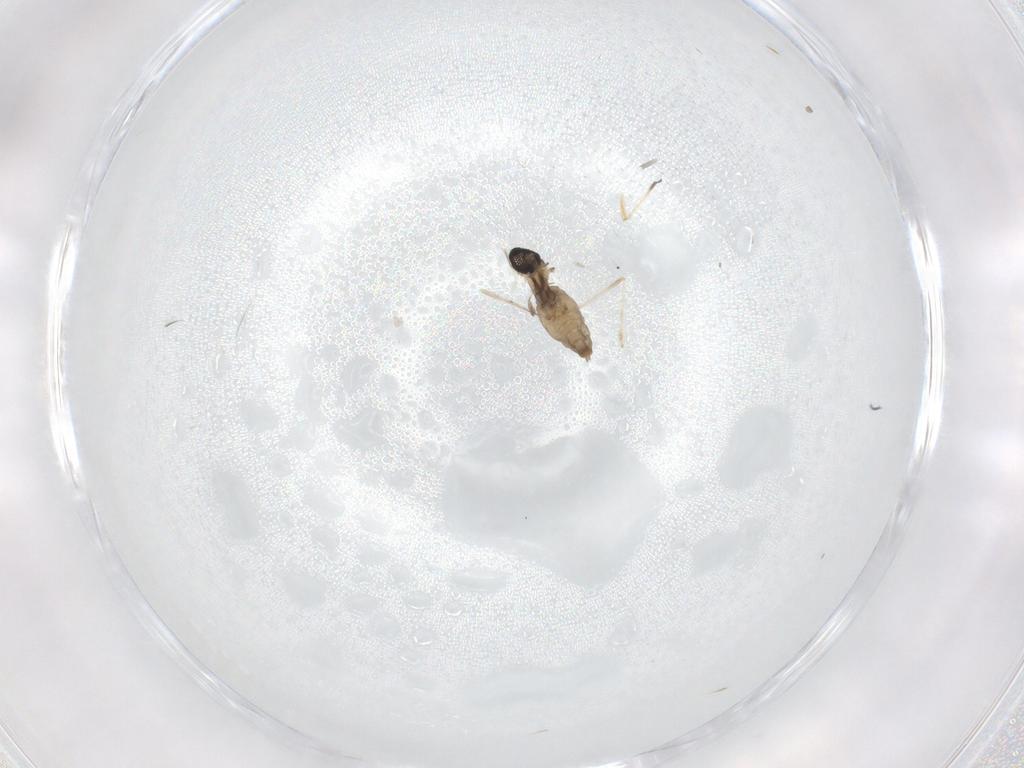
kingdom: Animalia
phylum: Arthropoda
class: Insecta
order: Diptera
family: Cecidomyiidae
